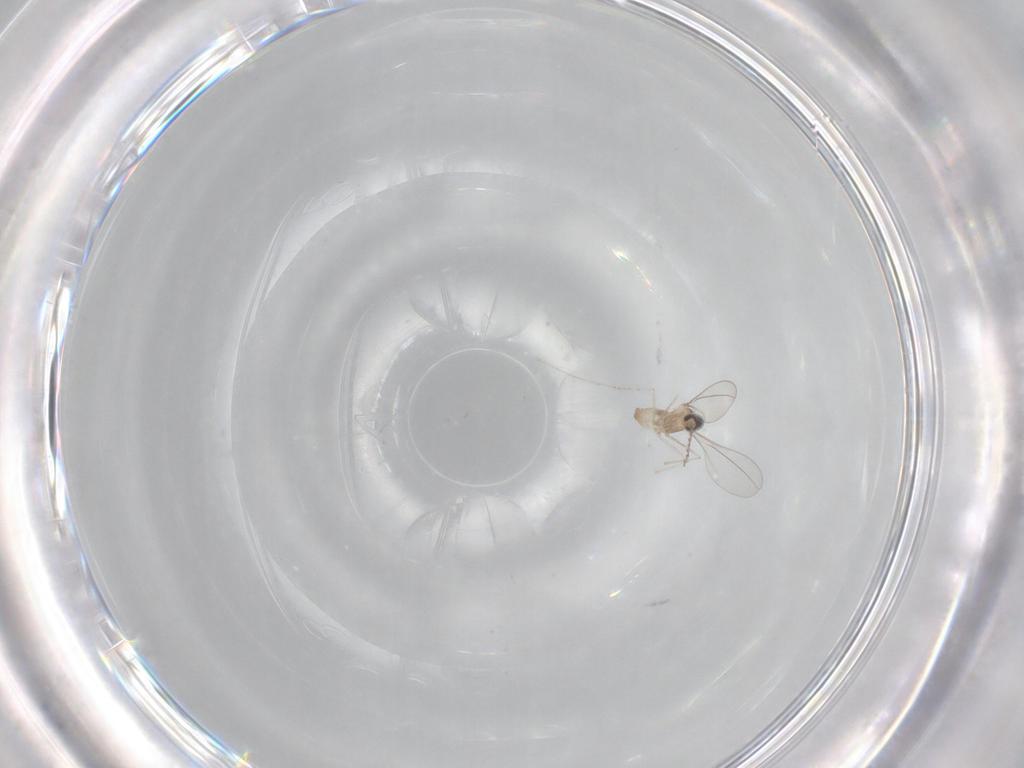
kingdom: Animalia
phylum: Arthropoda
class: Insecta
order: Diptera
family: Cecidomyiidae
